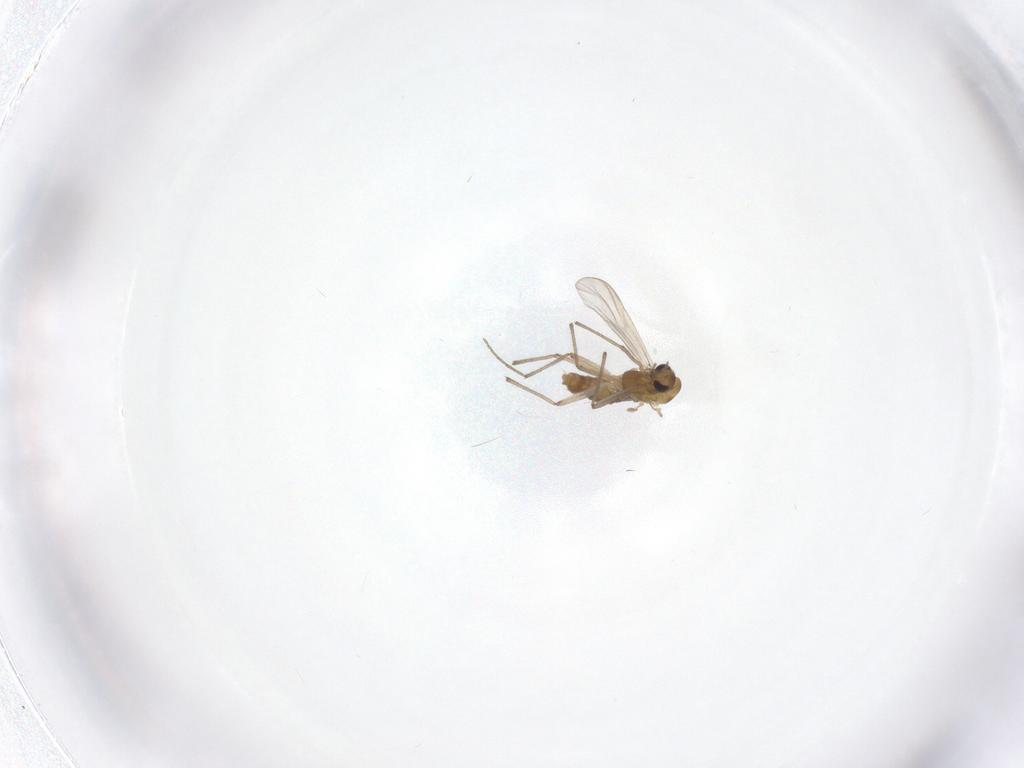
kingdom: Animalia
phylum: Arthropoda
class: Insecta
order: Diptera
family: Chironomidae
